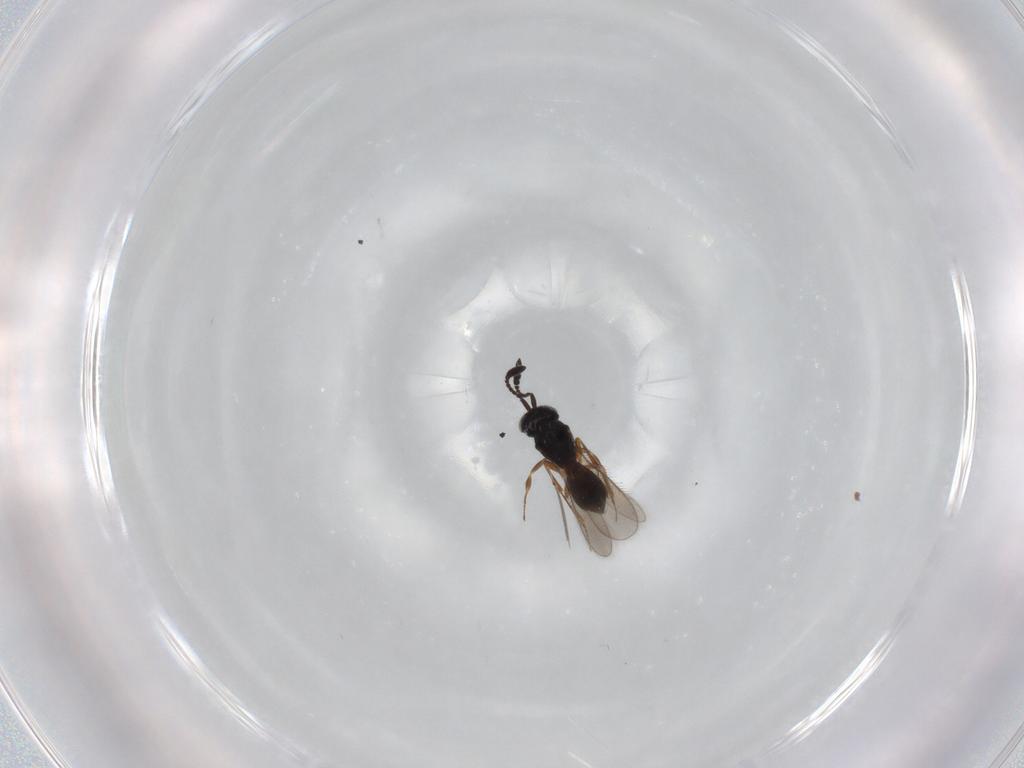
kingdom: Animalia
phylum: Arthropoda
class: Insecta
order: Hymenoptera
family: Scelionidae
